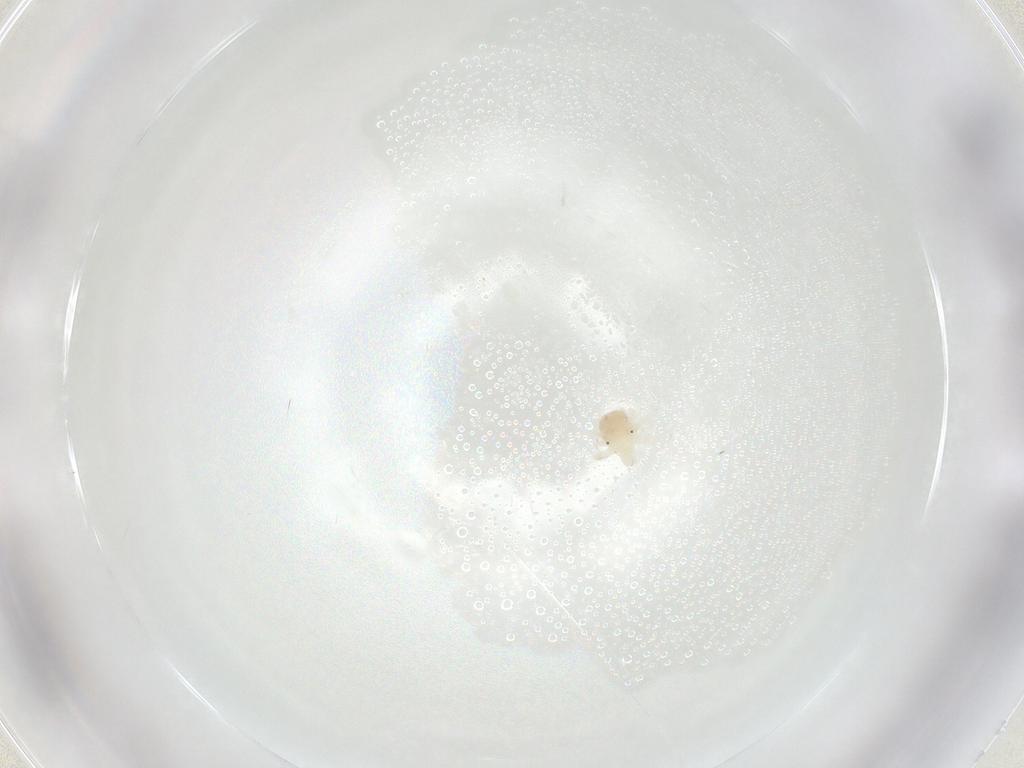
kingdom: Animalia
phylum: Arthropoda
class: Arachnida
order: Trombidiformes
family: Anystidae
